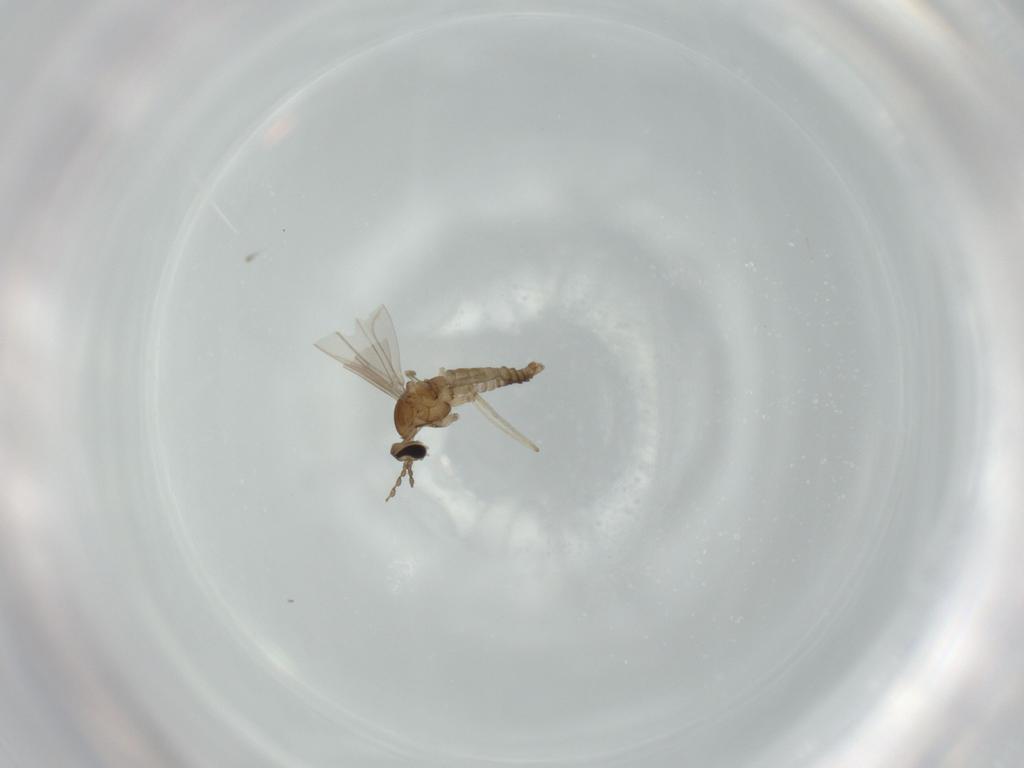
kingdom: Animalia
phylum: Arthropoda
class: Insecta
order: Diptera
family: Cecidomyiidae
